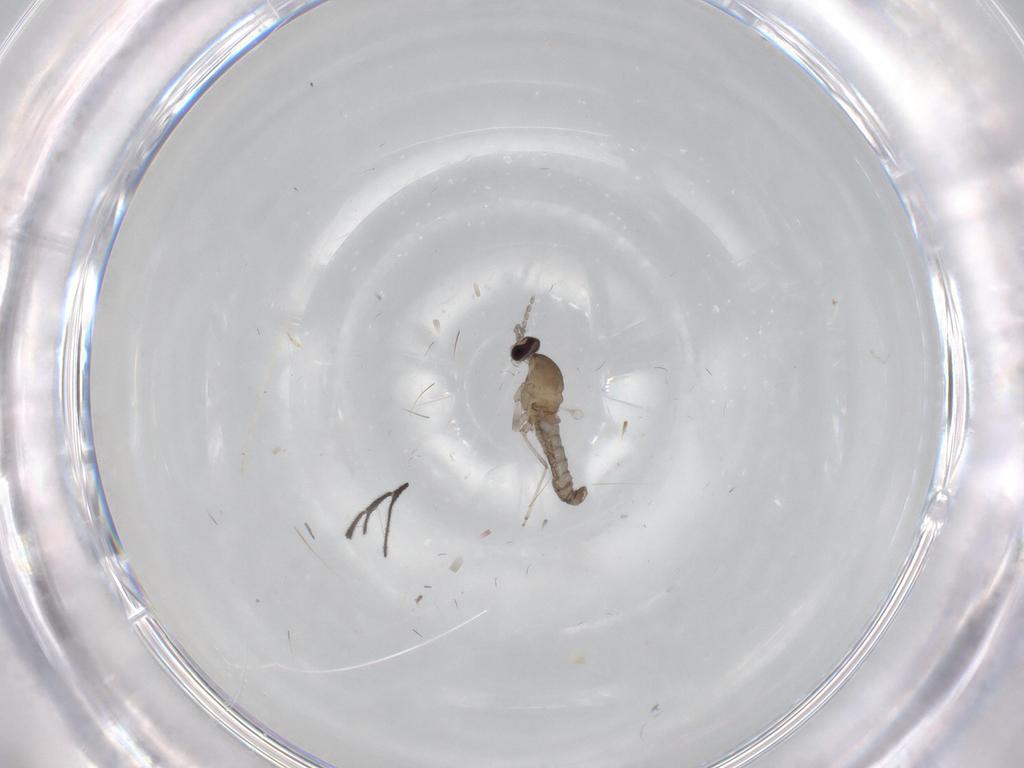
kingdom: Animalia
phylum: Arthropoda
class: Insecta
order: Diptera
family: Cecidomyiidae
